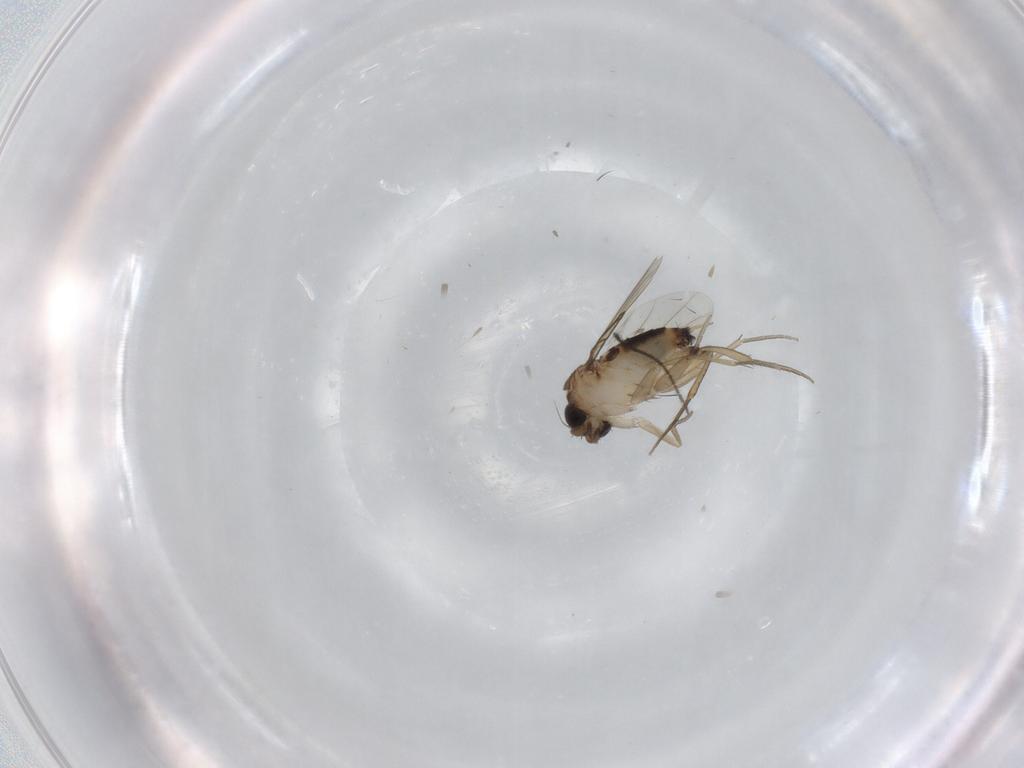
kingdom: Animalia
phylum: Arthropoda
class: Insecta
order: Diptera
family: Phoridae
